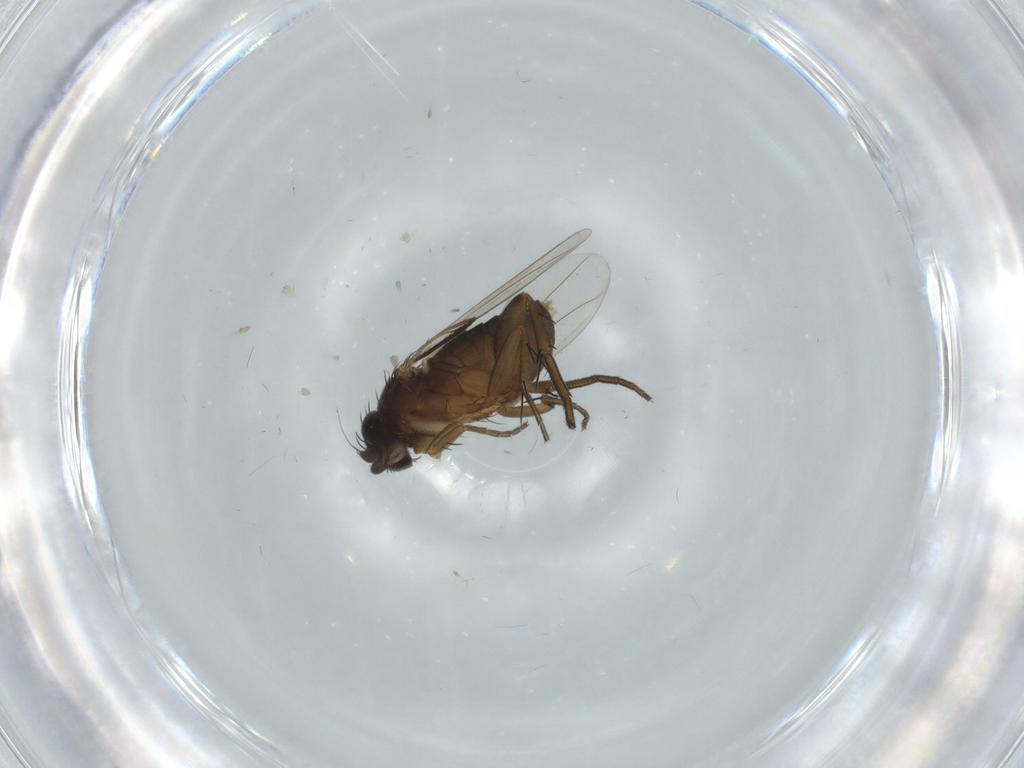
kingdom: Animalia
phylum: Arthropoda
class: Insecta
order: Diptera
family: Phoridae
